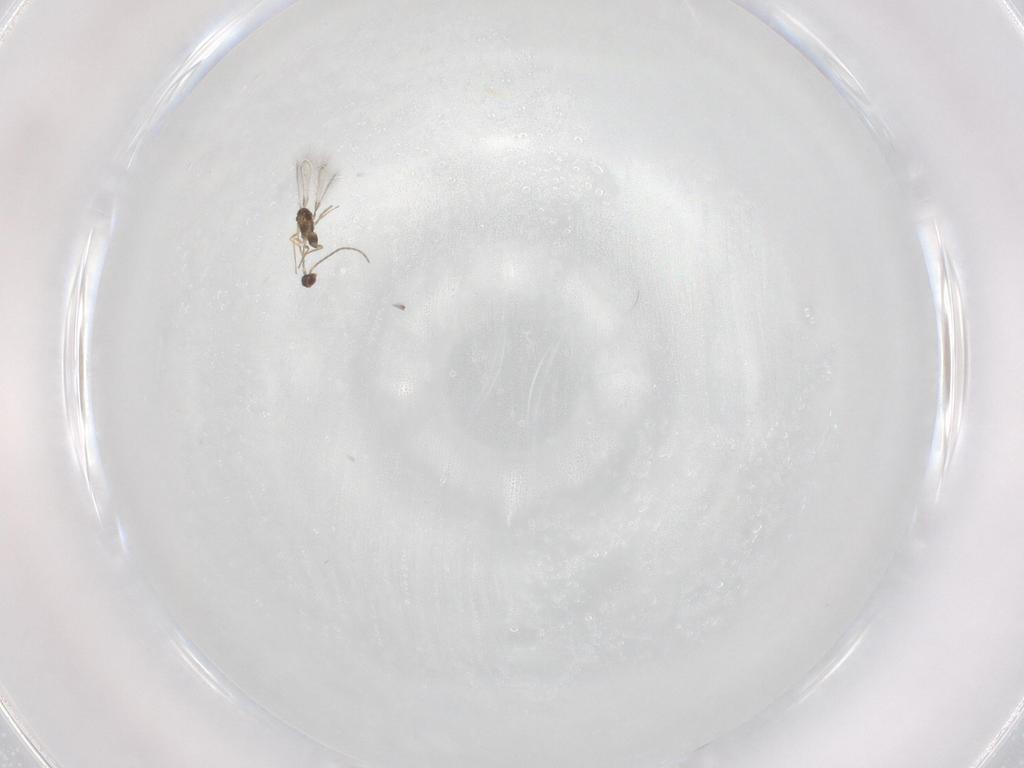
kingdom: Animalia
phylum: Arthropoda
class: Insecta
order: Hymenoptera
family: Mymaridae
